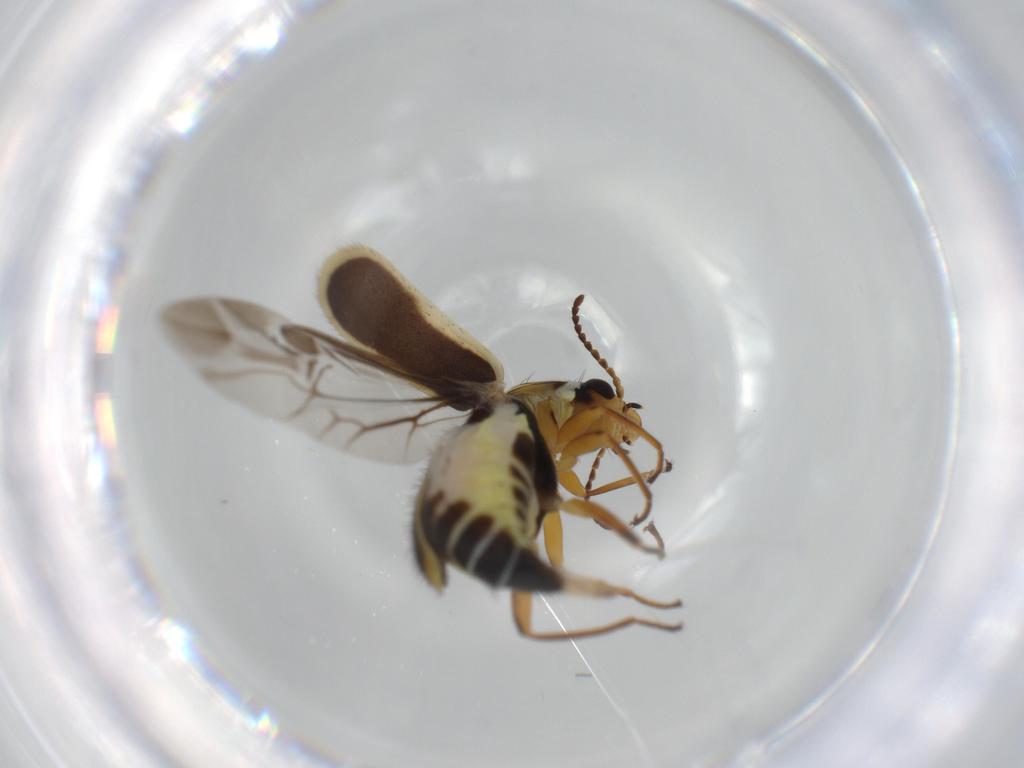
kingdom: Animalia
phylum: Arthropoda
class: Insecta
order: Coleoptera
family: Melyridae
